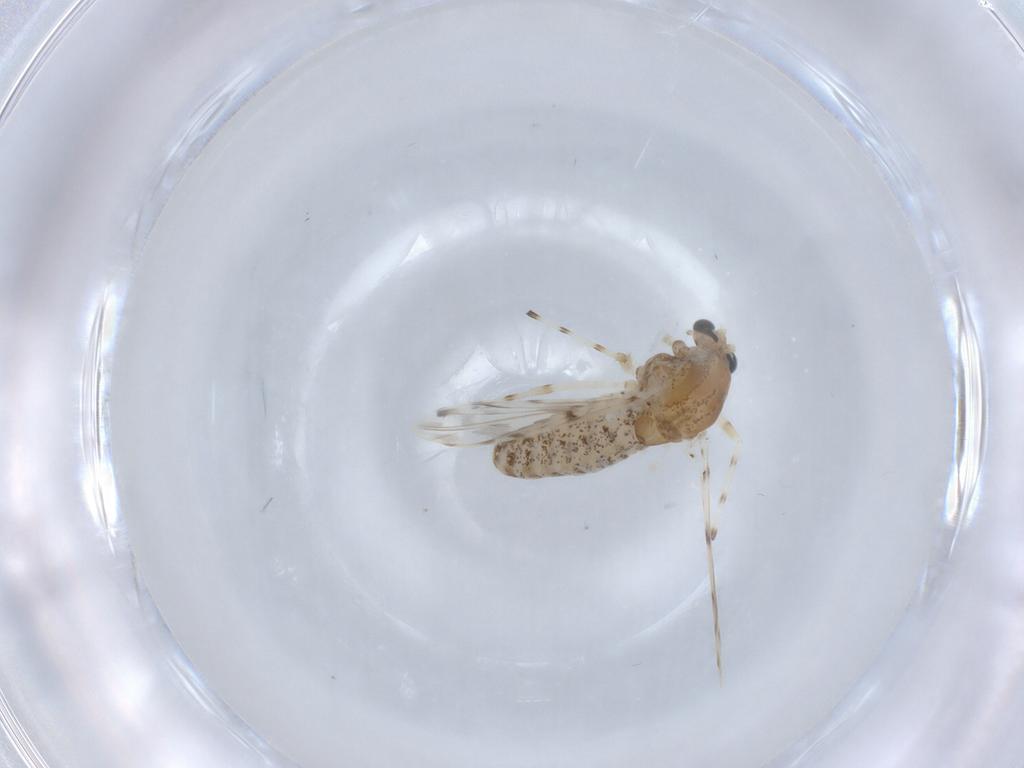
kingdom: Animalia
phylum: Arthropoda
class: Insecta
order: Diptera
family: Chironomidae
